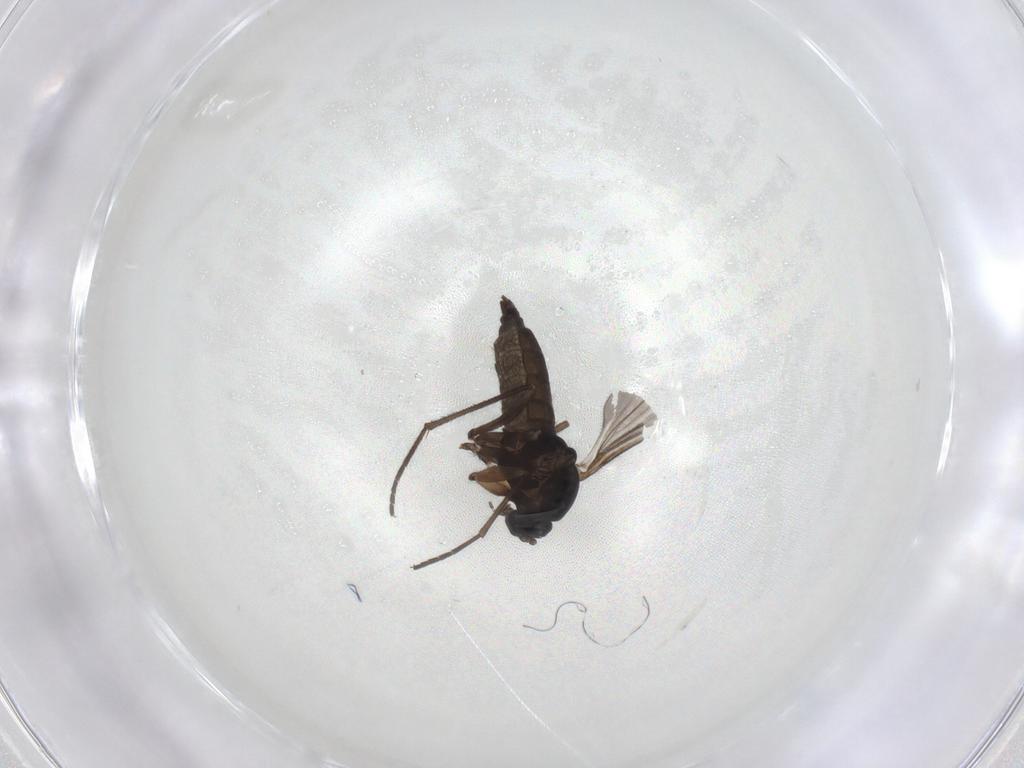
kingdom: Animalia
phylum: Arthropoda
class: Insecta
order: Diptera
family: Sciaridae
